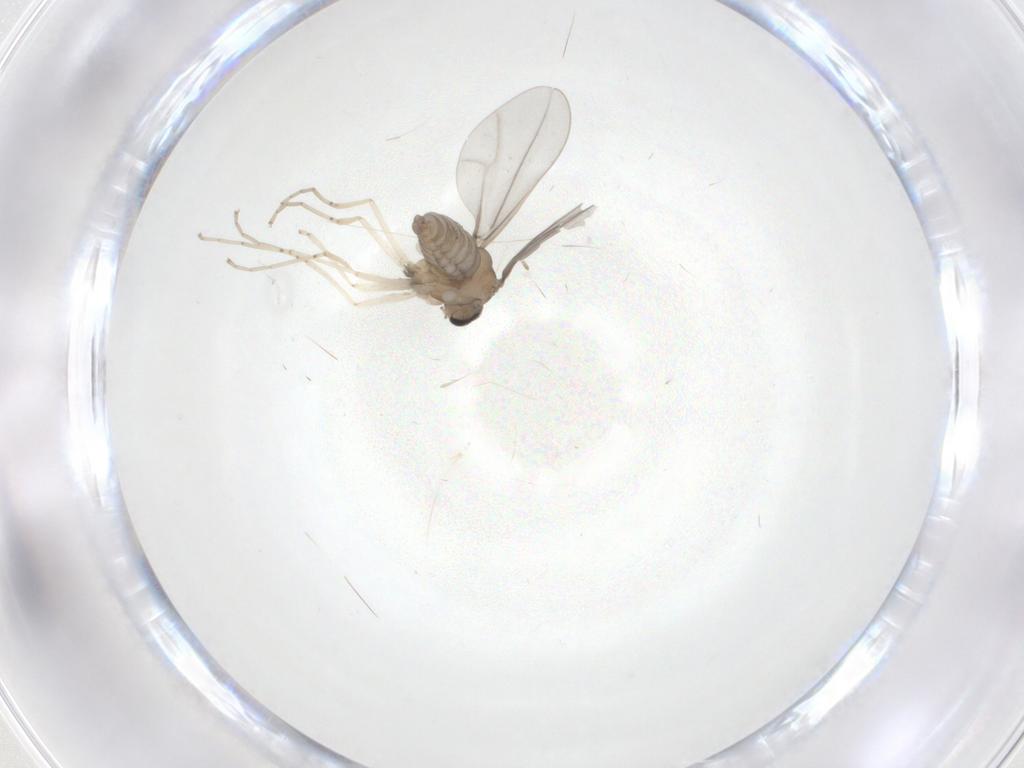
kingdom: Animalia
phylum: Arthropoda
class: Insecta
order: Diptera
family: Cecidomyiidae
